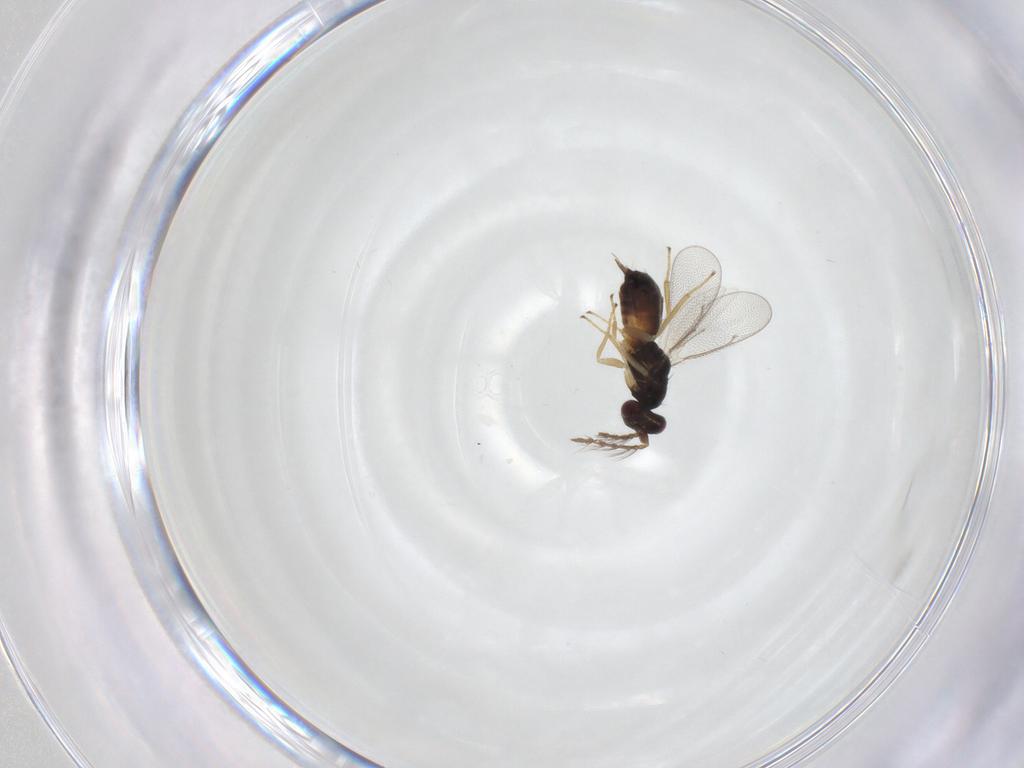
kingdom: Animalia
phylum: Arthropoda
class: Insecta
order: Hymenoptera
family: Eulophidae
